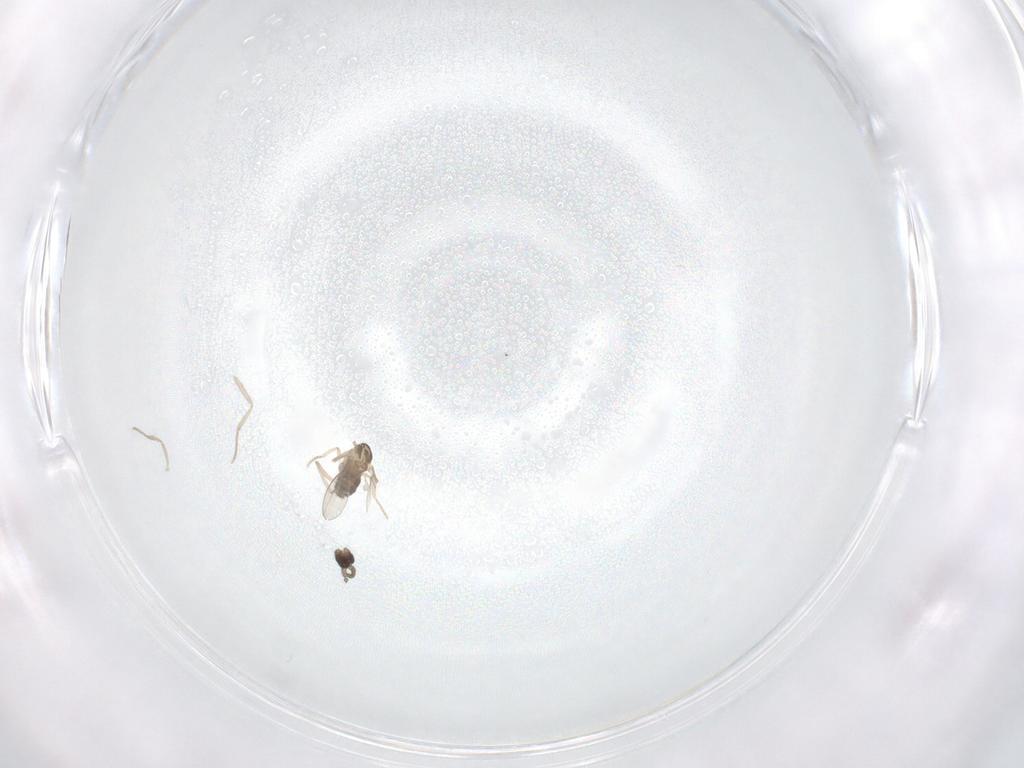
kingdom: Animalia
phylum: Arthropoda
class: Insecta
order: Diptera
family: Cecidomyiidae
